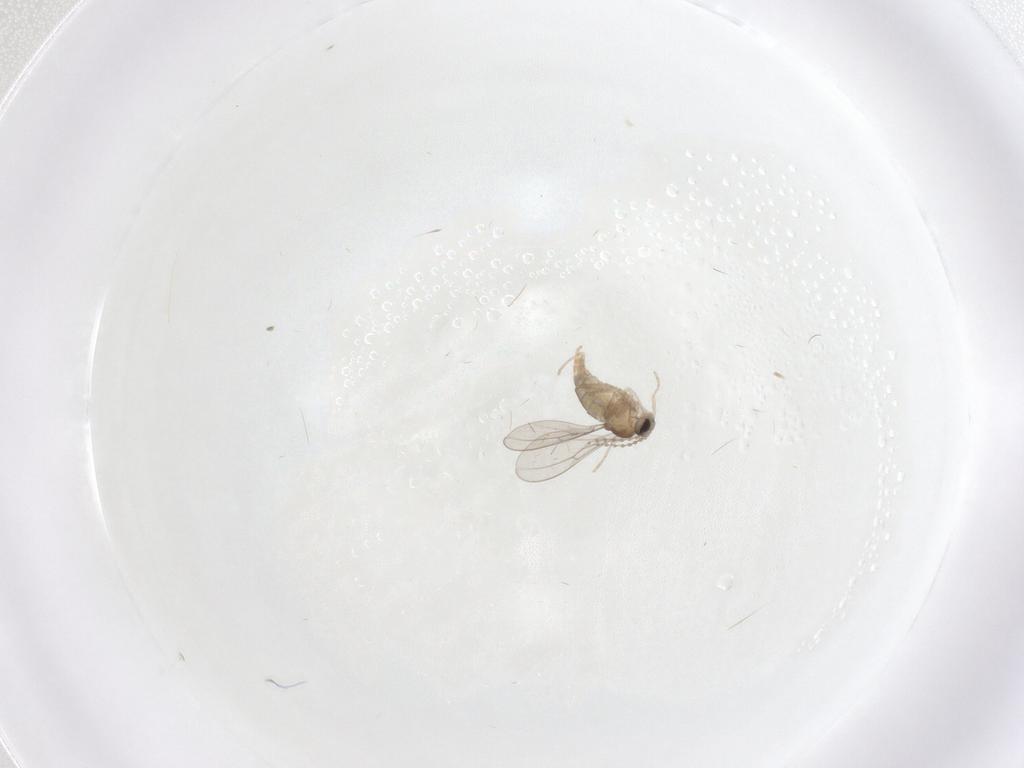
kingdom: Animalia
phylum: Arthropoda
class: Insecta
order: Diptera
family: Cecidomyiidae
